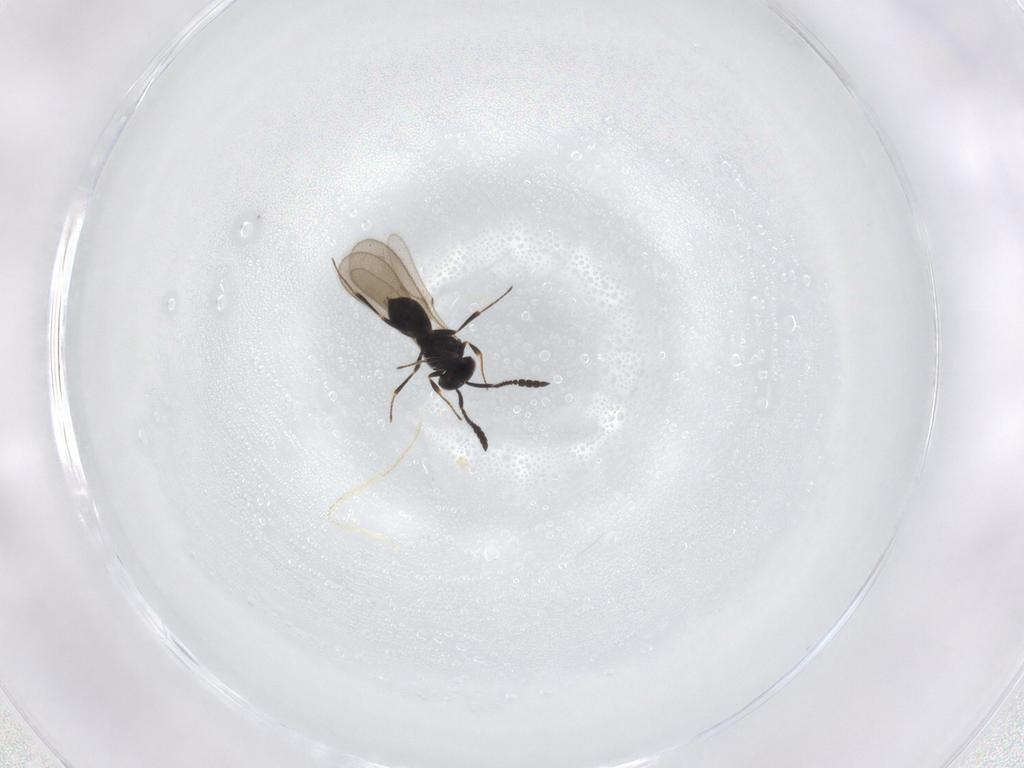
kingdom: Animalia
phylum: Arthropoda
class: Insecta
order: Hymenoptera
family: Scelionidae
